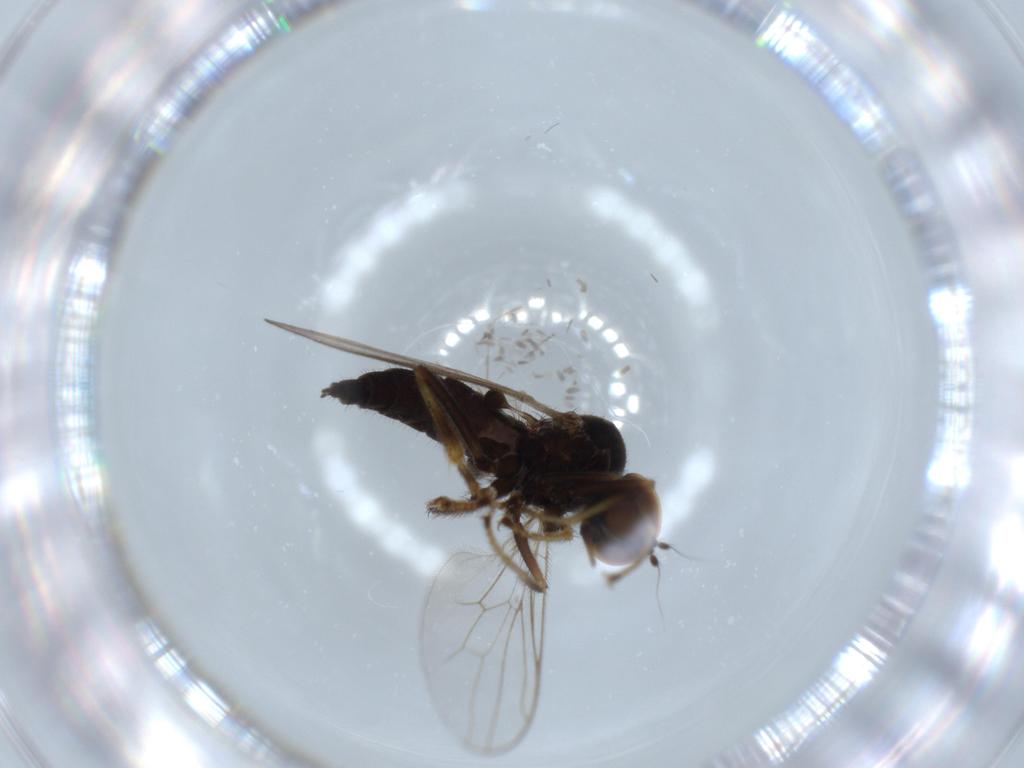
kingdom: Animalia
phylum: Arthropoda
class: Insecta
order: Diptera
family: Hybotidae
